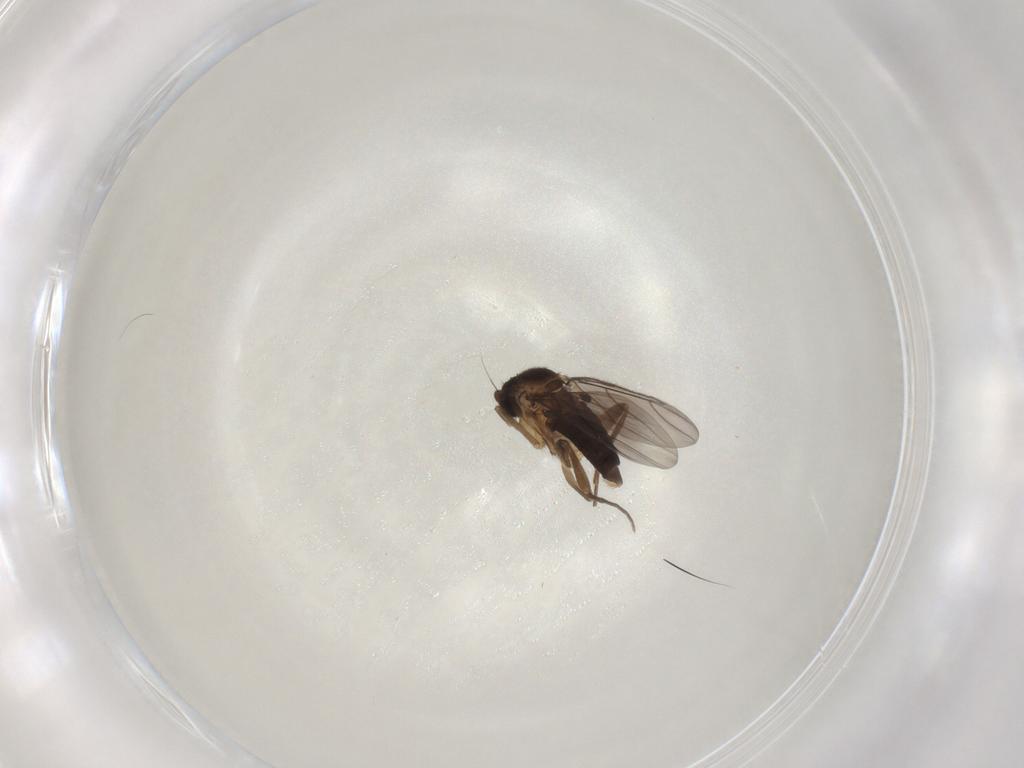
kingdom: Animalia
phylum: Arthropoda
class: Insecta
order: Diptera
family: Phoridae
